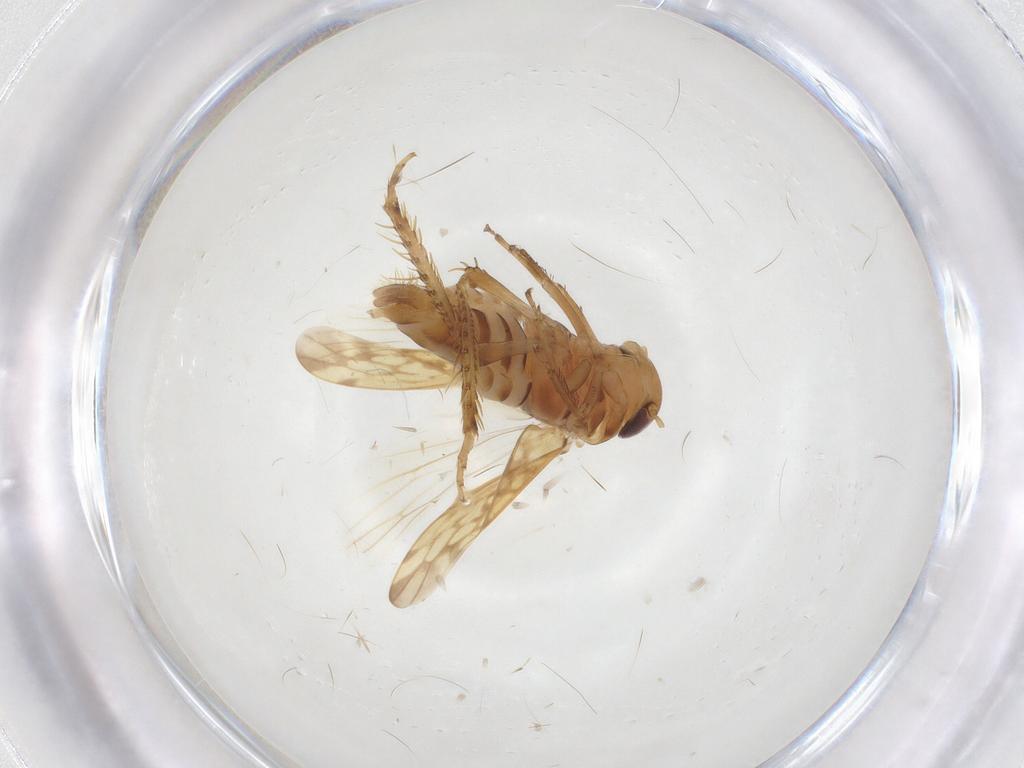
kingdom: Animalia
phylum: Arthropoda
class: Insecta
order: Hemiptera
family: Cicadellidae
